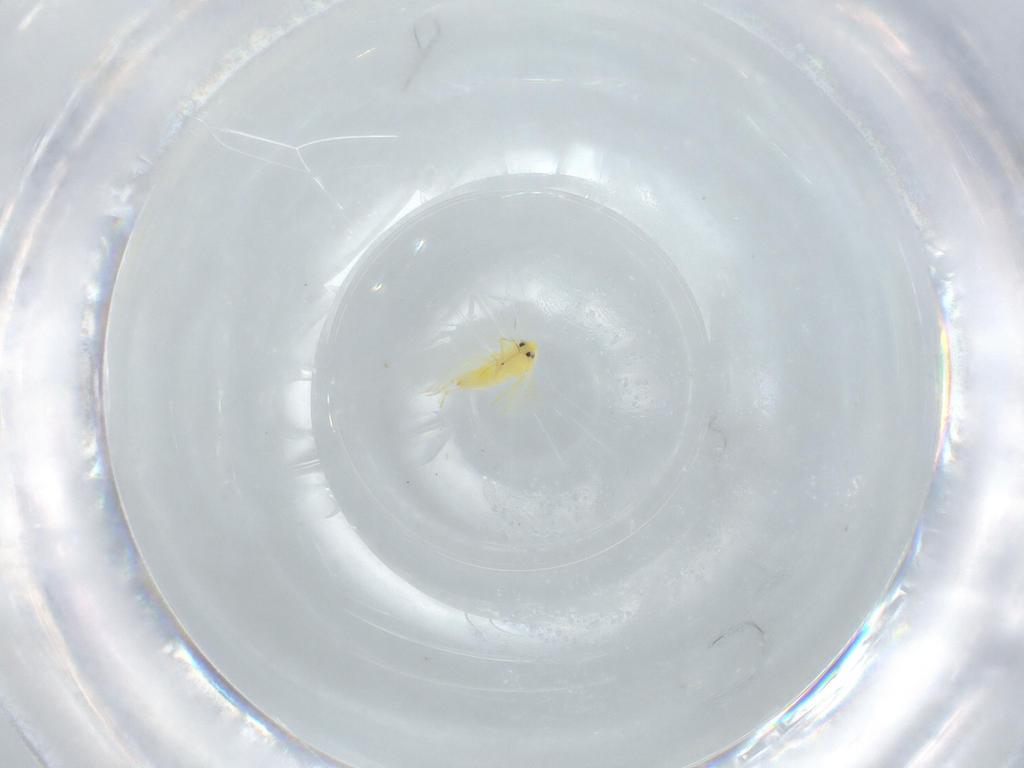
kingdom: Animalia
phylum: Arthropoda
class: Insecta
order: Hemiptera
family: Aleyrodidae
